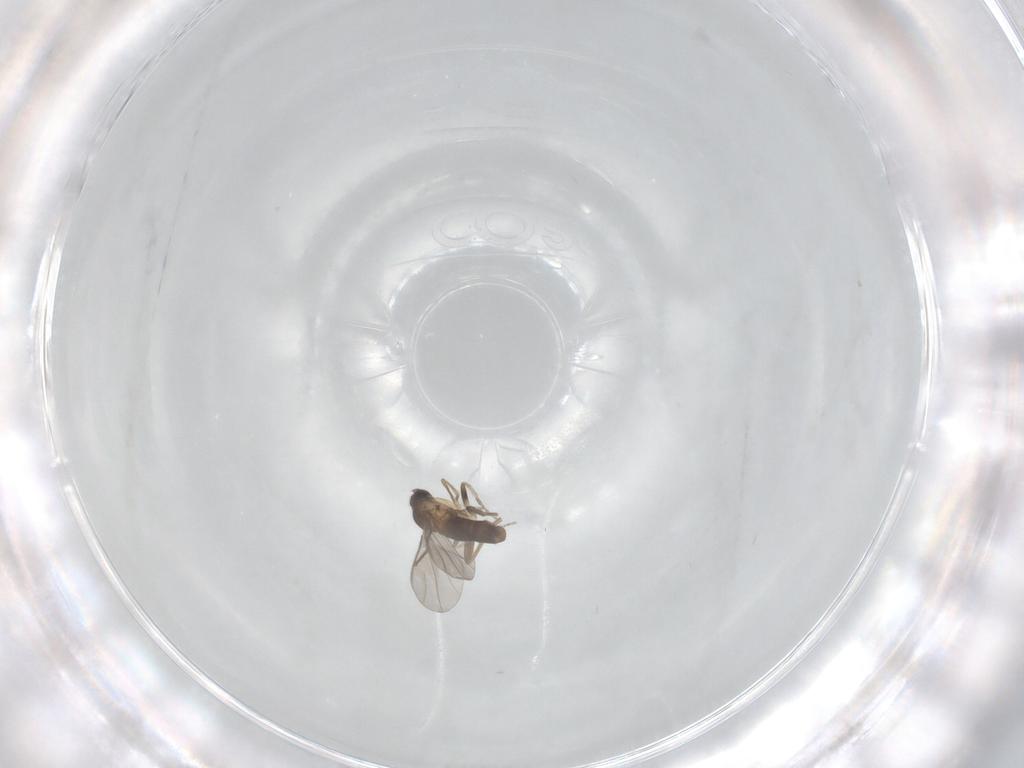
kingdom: Animalia
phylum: Arthropoda
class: Insecta
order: Diptera
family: Phoridae
